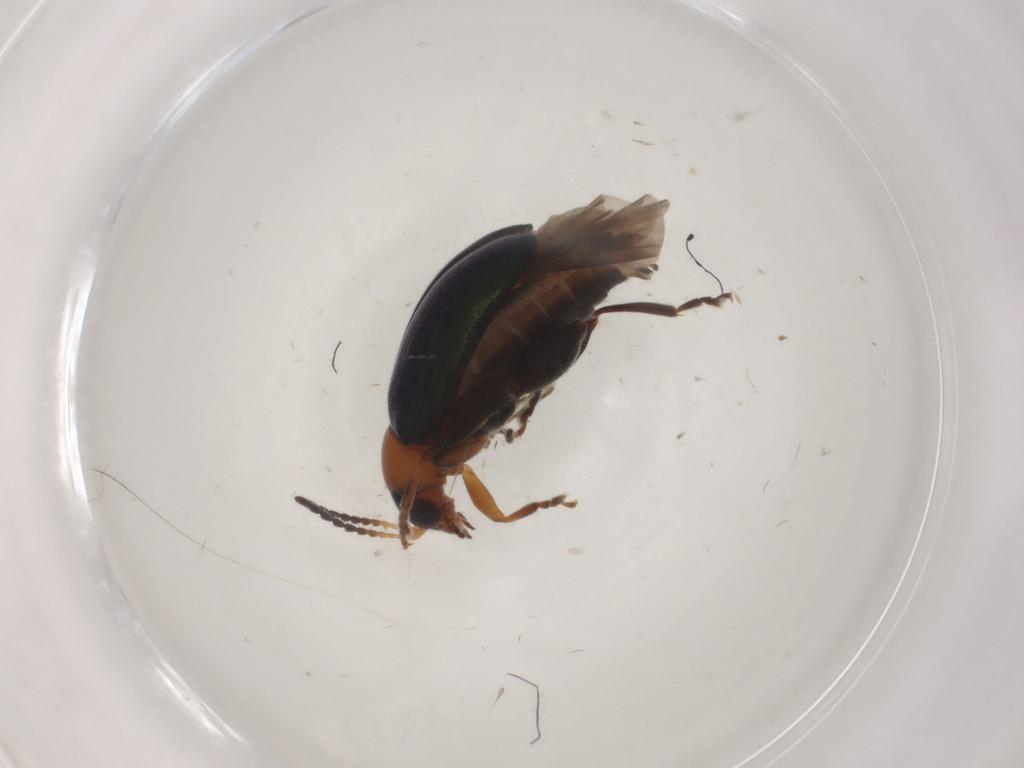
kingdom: Animalia
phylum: Arthropoda
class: Insecta
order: Coleoptera
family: Chrysomelidae
